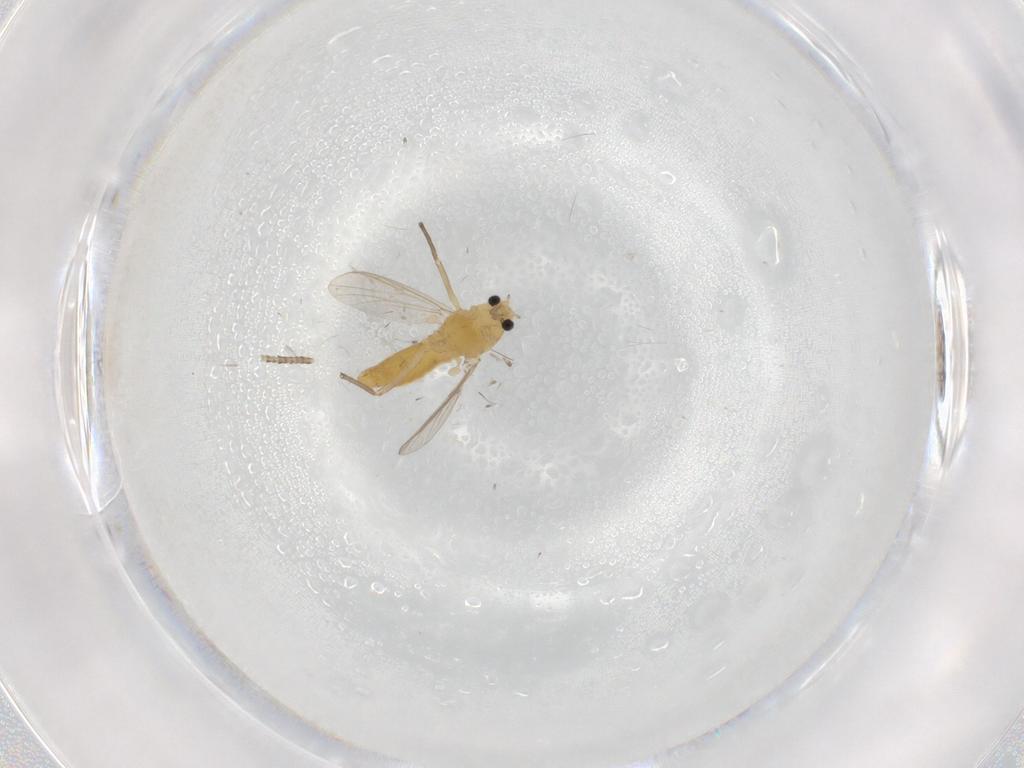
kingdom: Animalia
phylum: Arthropoda
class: Insecta
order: Diptera
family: Chironomidae
